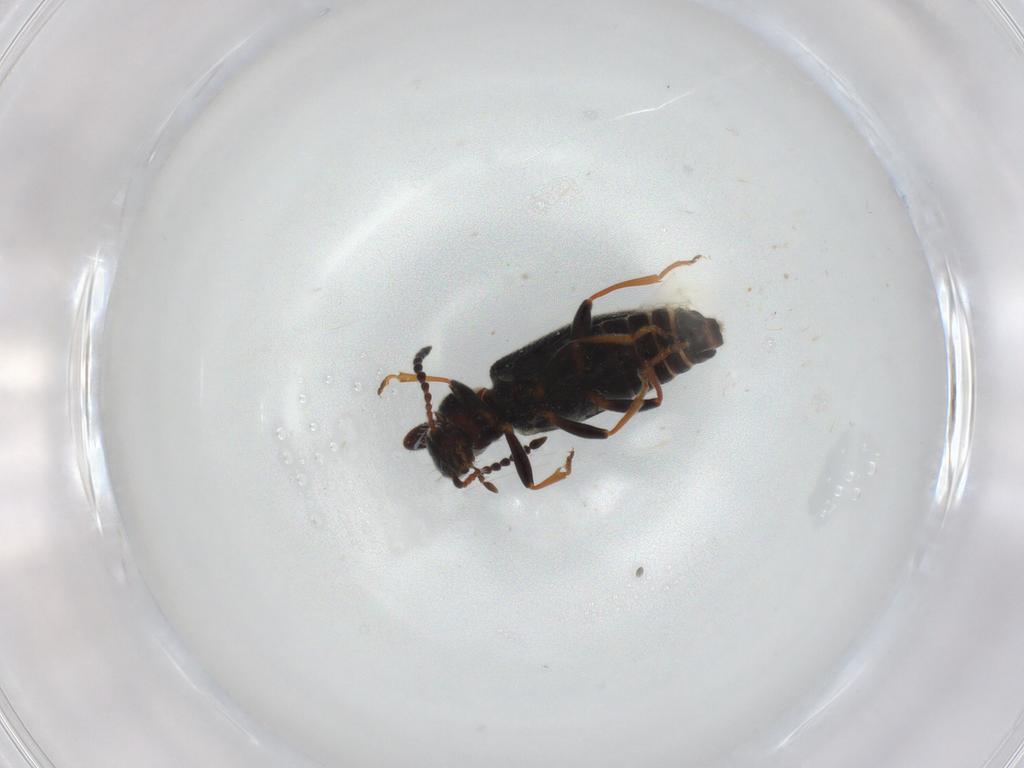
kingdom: Animalia
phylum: Arthropoda
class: Insecta
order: Coleoptera
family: Anthicidae
